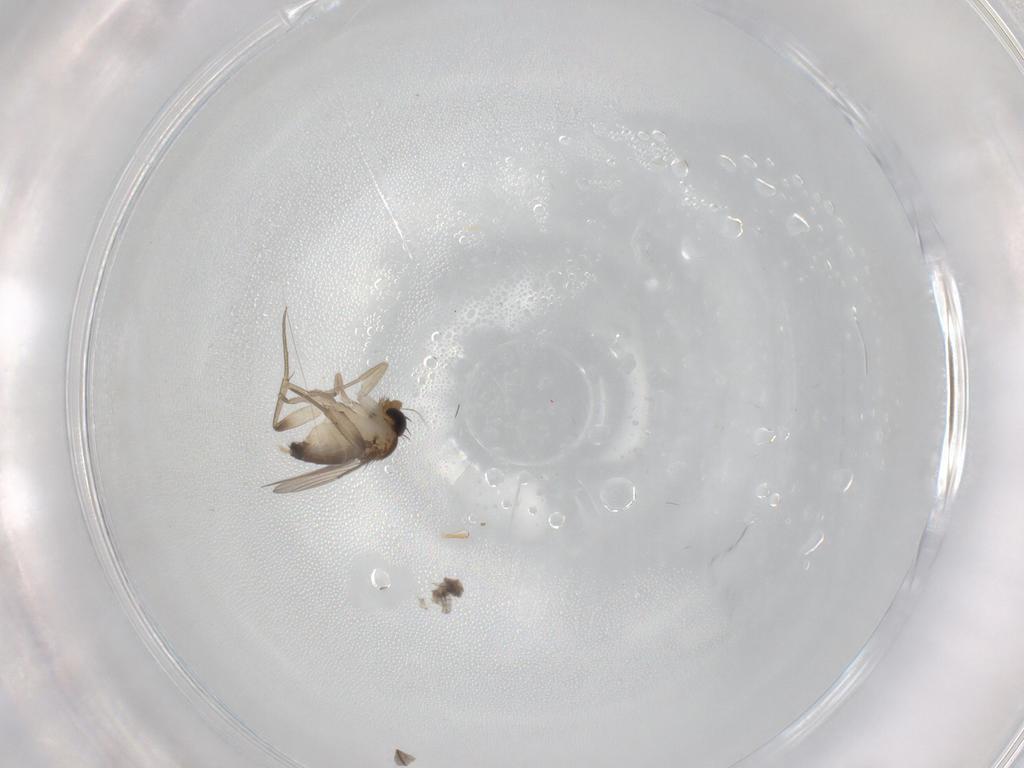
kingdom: Animalia
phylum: Arthropoda
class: Insecta
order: Diptera
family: Phoridae
